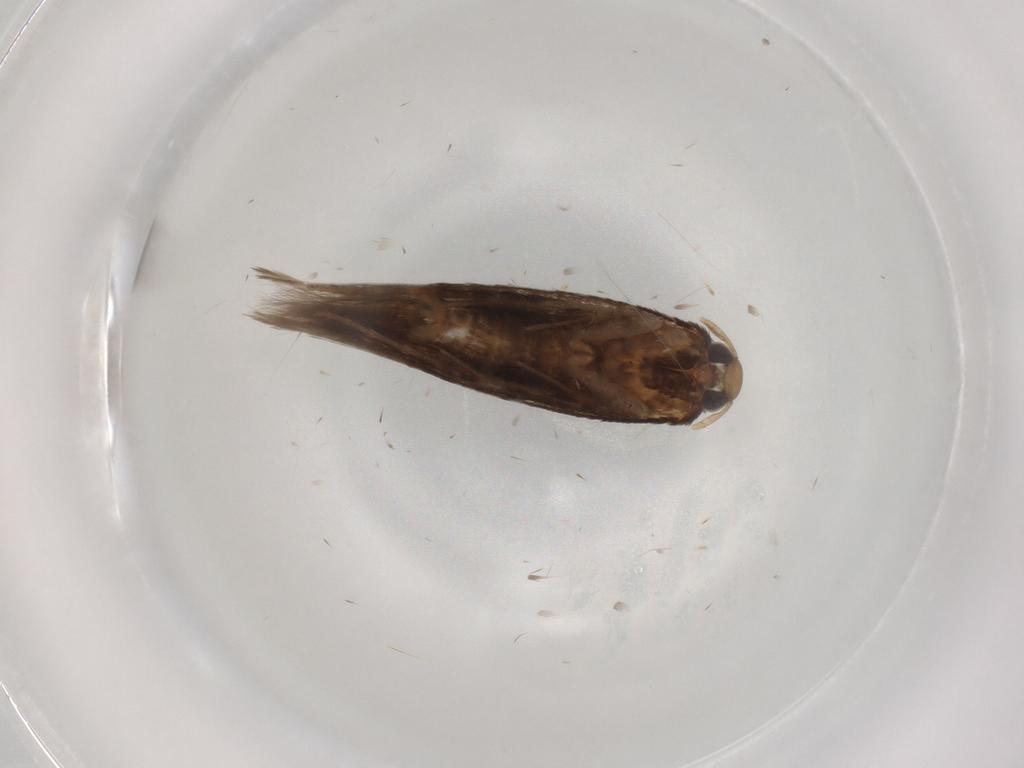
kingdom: Animalia
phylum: Arthropoda
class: Insecta
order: Lepidoptera
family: Cosmopterigidae
